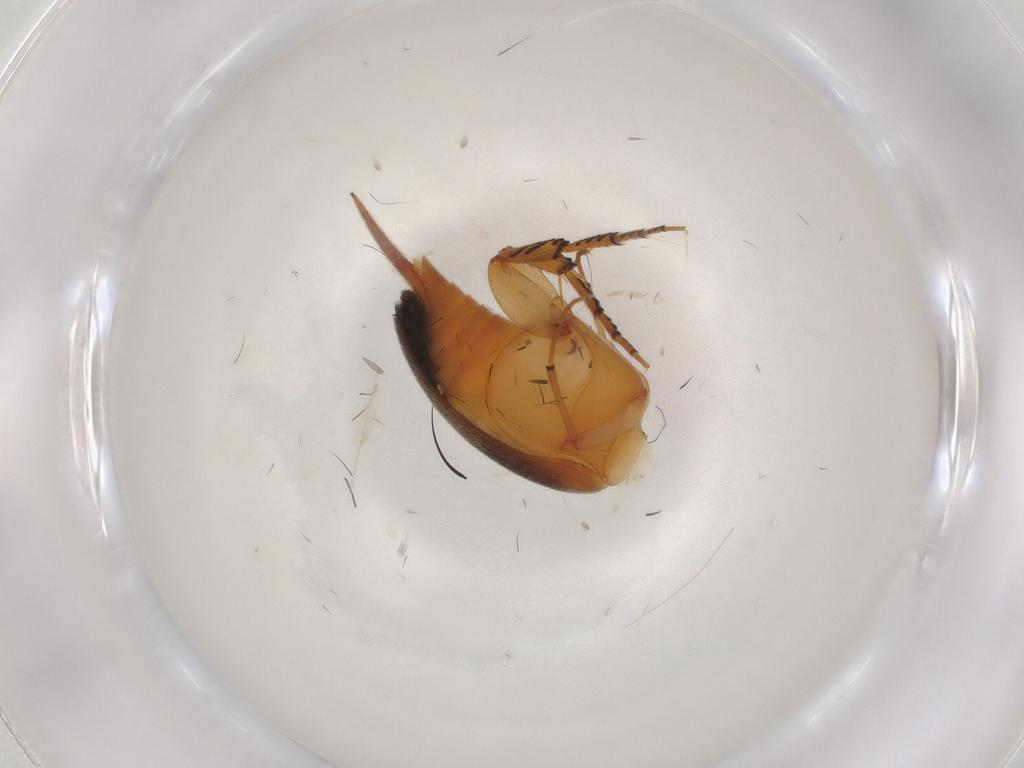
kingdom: Animalia
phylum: Arthropoda
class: Insecta
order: Coleoptera
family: Mordellidae
